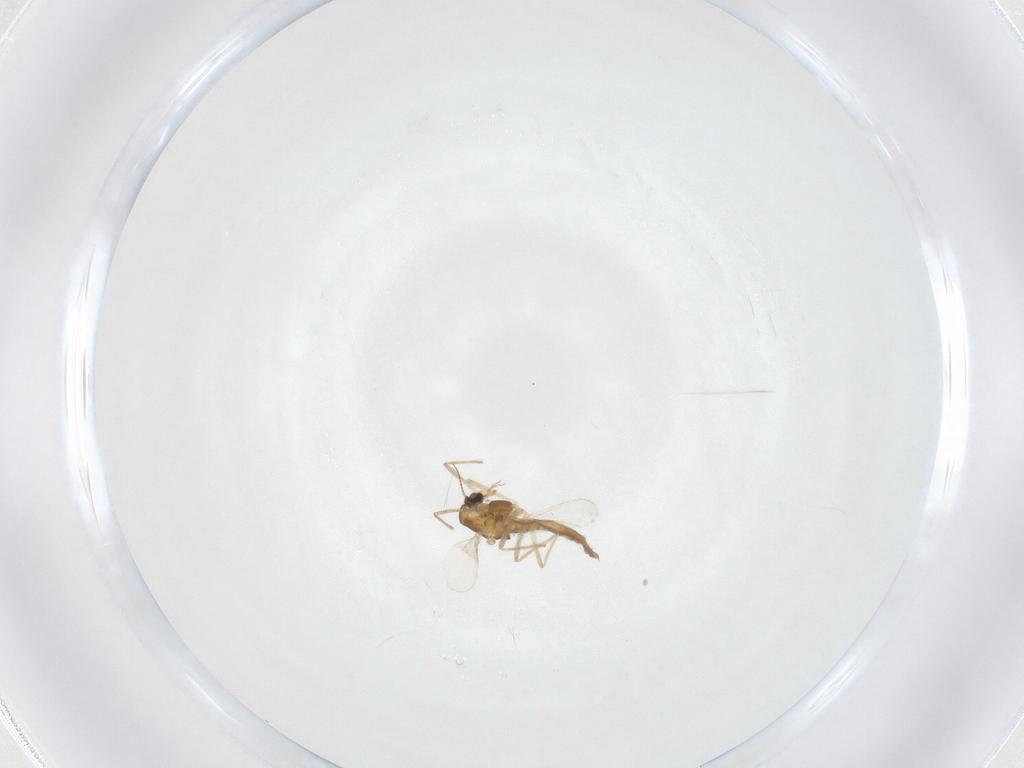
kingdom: Animalia
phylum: Arthropoda
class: Insecta
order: Diptera
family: Chironomidae
